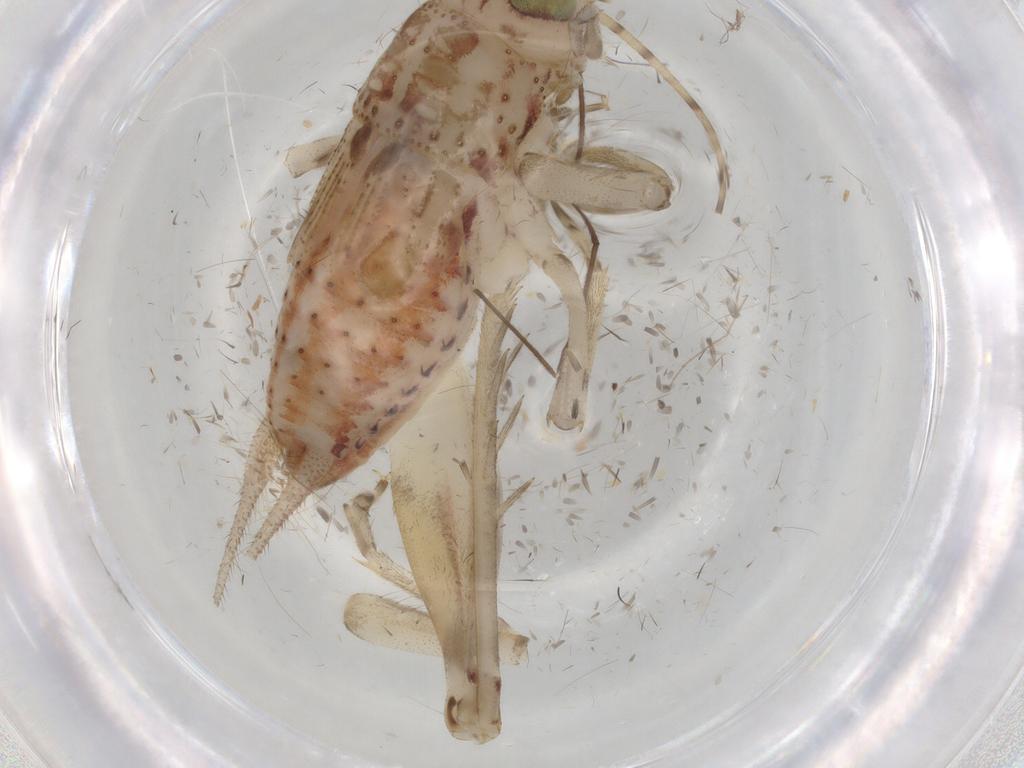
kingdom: Animalia
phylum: Arthropoda
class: Insecta
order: Orthoptera
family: Trigonidiidae
